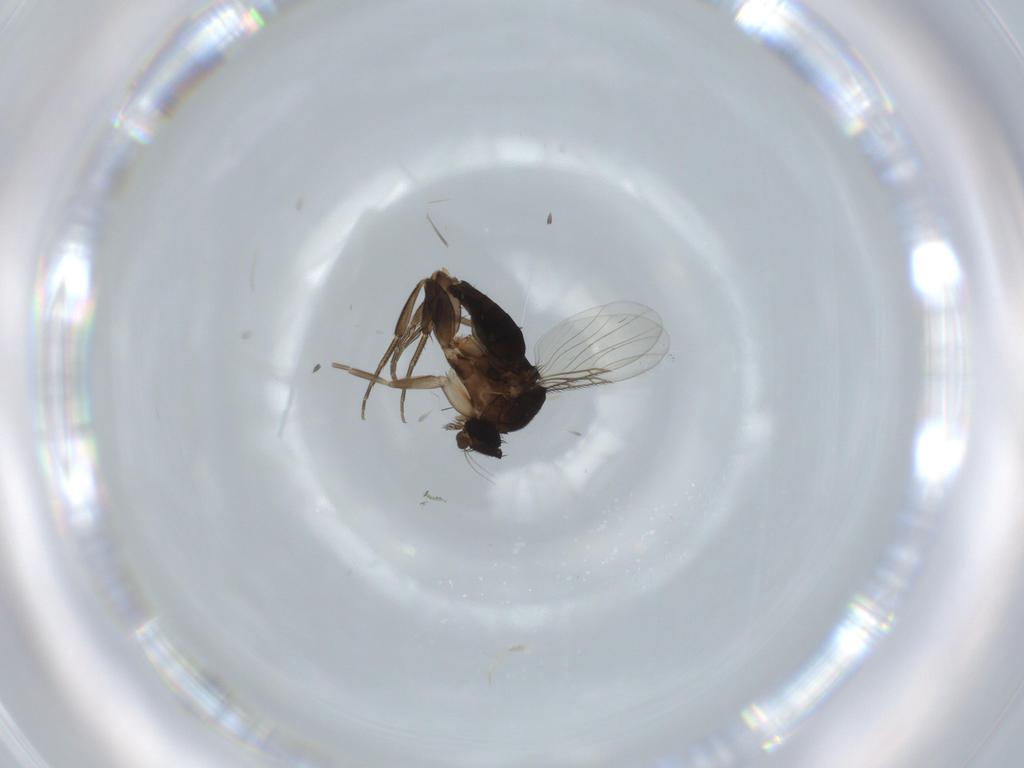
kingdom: Animalia
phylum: Arthropoda
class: Insecta
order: Diptera
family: Phoridae
